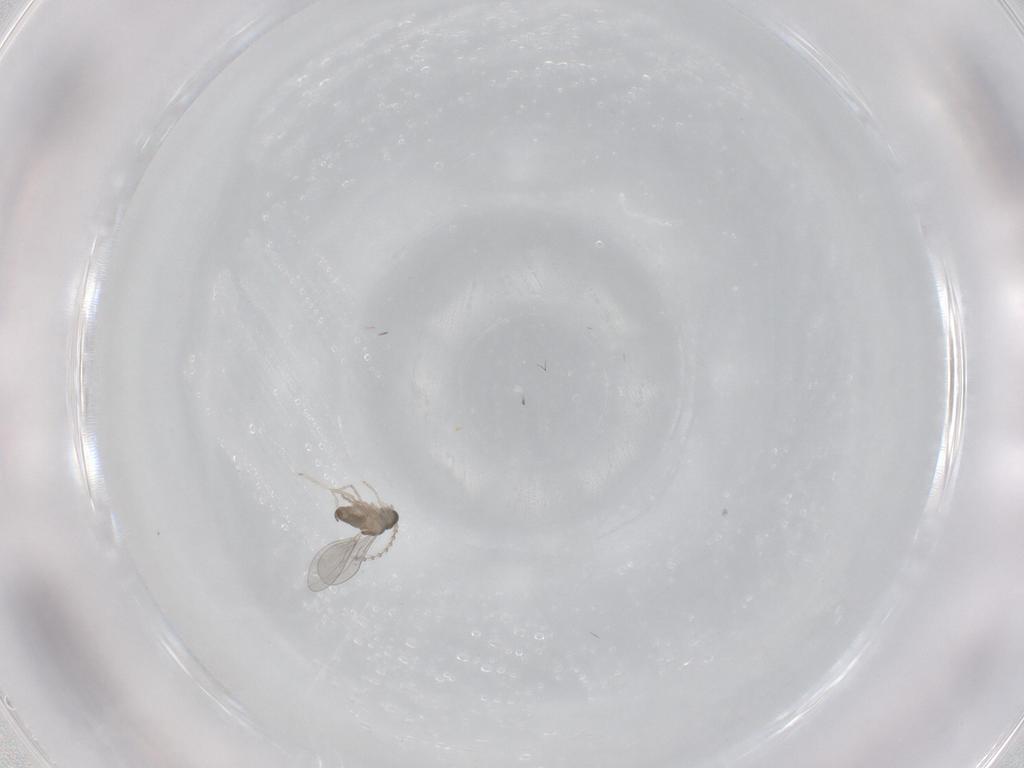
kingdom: Animalia
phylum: Arthropoda
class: Insecta
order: Diptera
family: Cecidomyiidae
